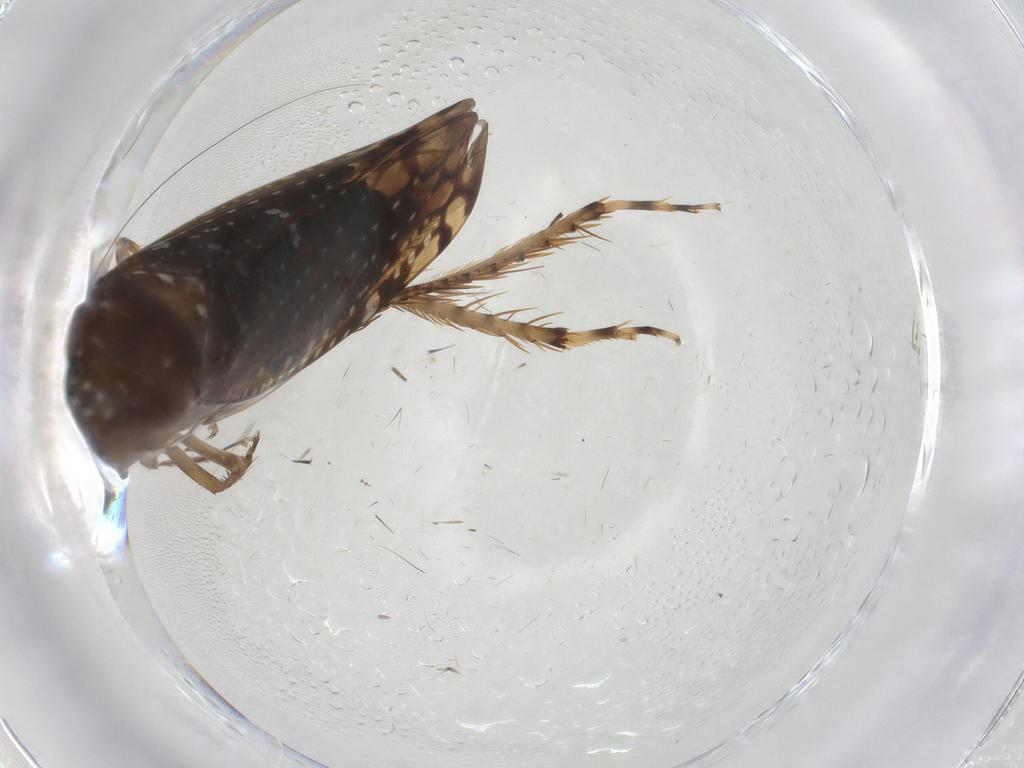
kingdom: Animalia
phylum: Arthropoda
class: Insecta
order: Hemiptera
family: Cicadellidae
